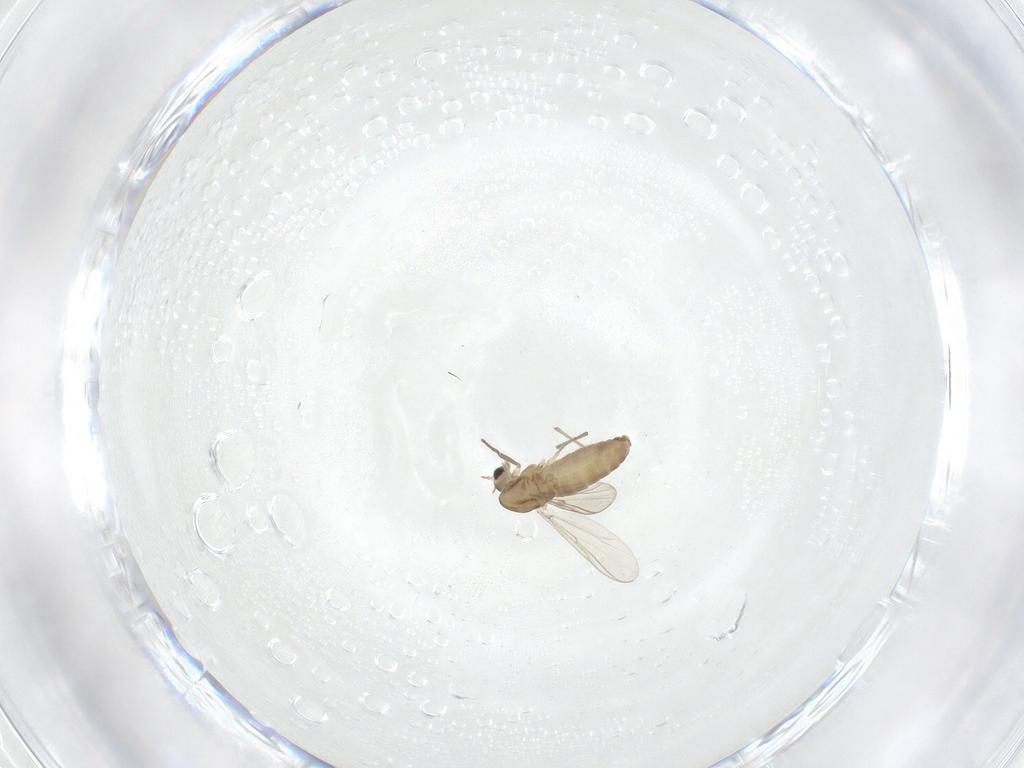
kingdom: Animalia
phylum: Arthropoda
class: Insecta
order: Diptera
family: Chironomidae
